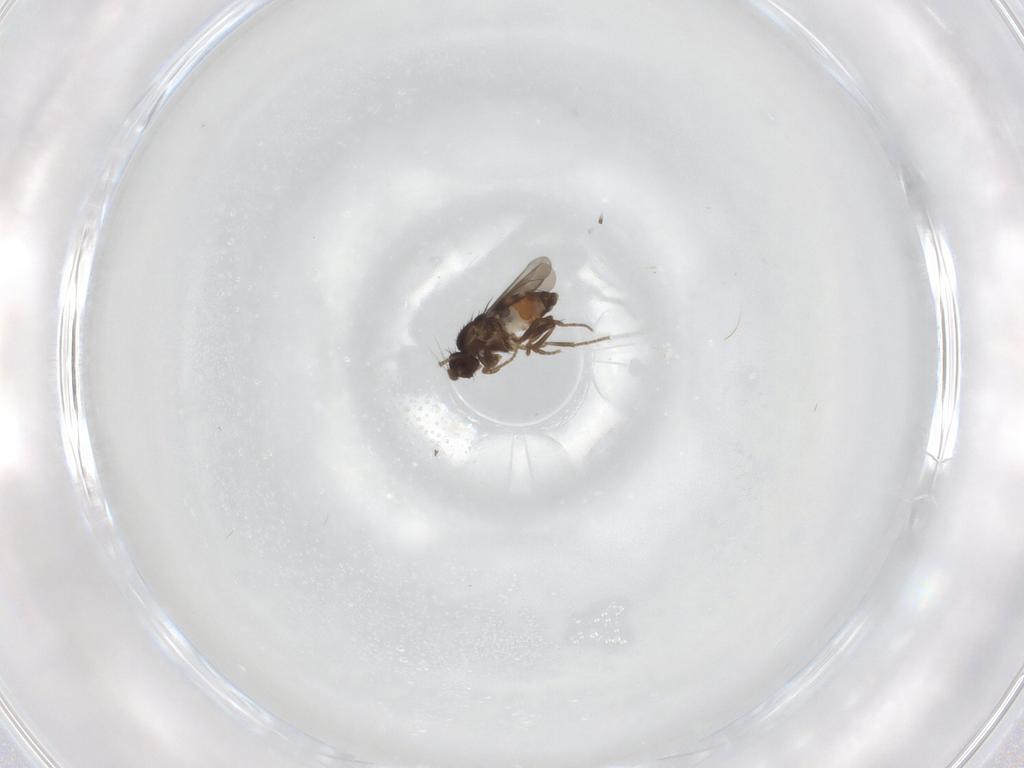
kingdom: Animalia
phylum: Arthropoda
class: Insecta
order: Diptera
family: Sphaeroceridae
